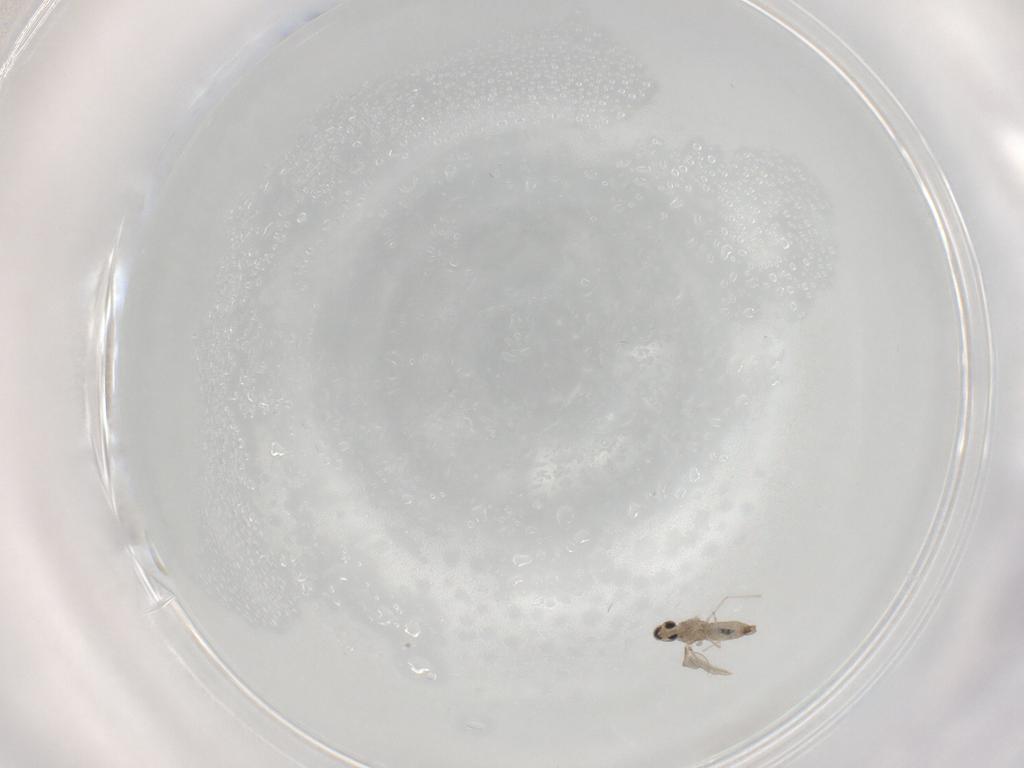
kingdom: Animalia
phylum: Arthropoda
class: Insecta
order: Diptera
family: Cecidomyiidae
